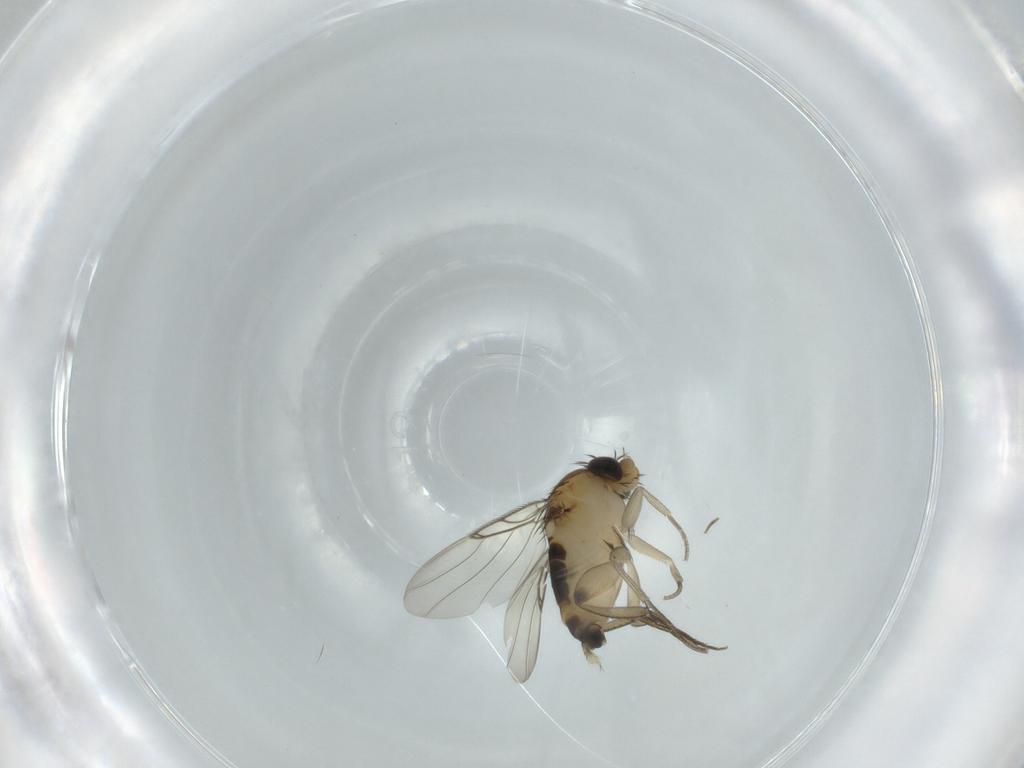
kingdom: Animalia
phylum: Arthropoda
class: Insecta
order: Diptera
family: Phoridae
